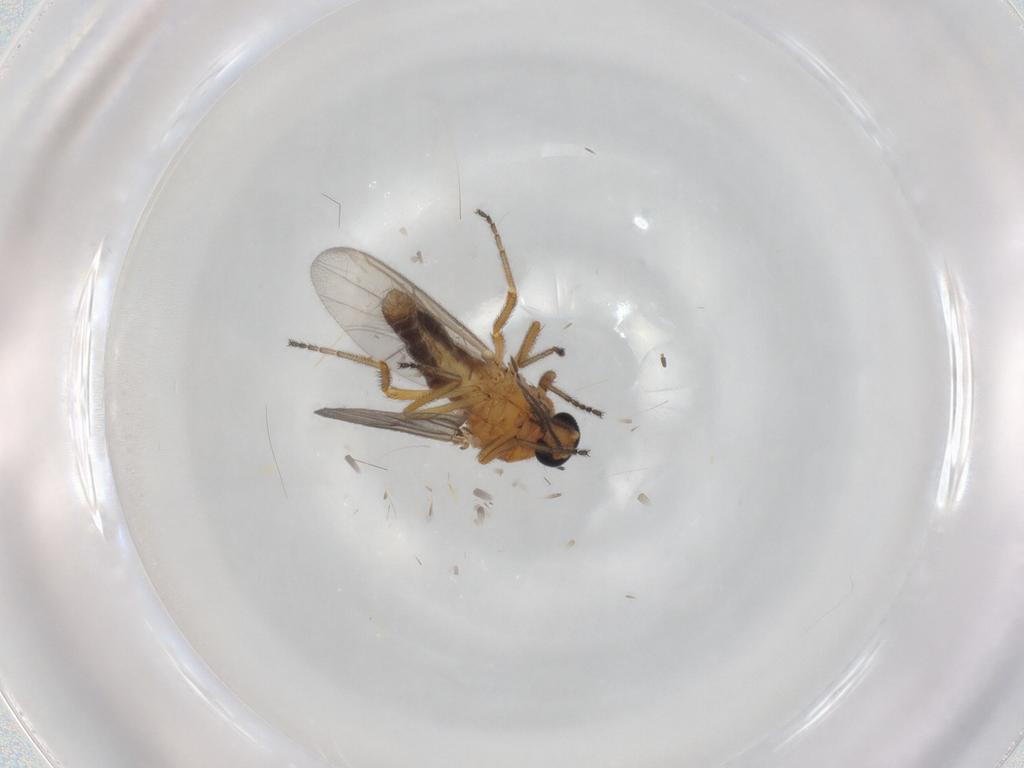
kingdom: Animalia
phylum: Arthropoda
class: Insecta
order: Diptera
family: Ceratopogonidae
